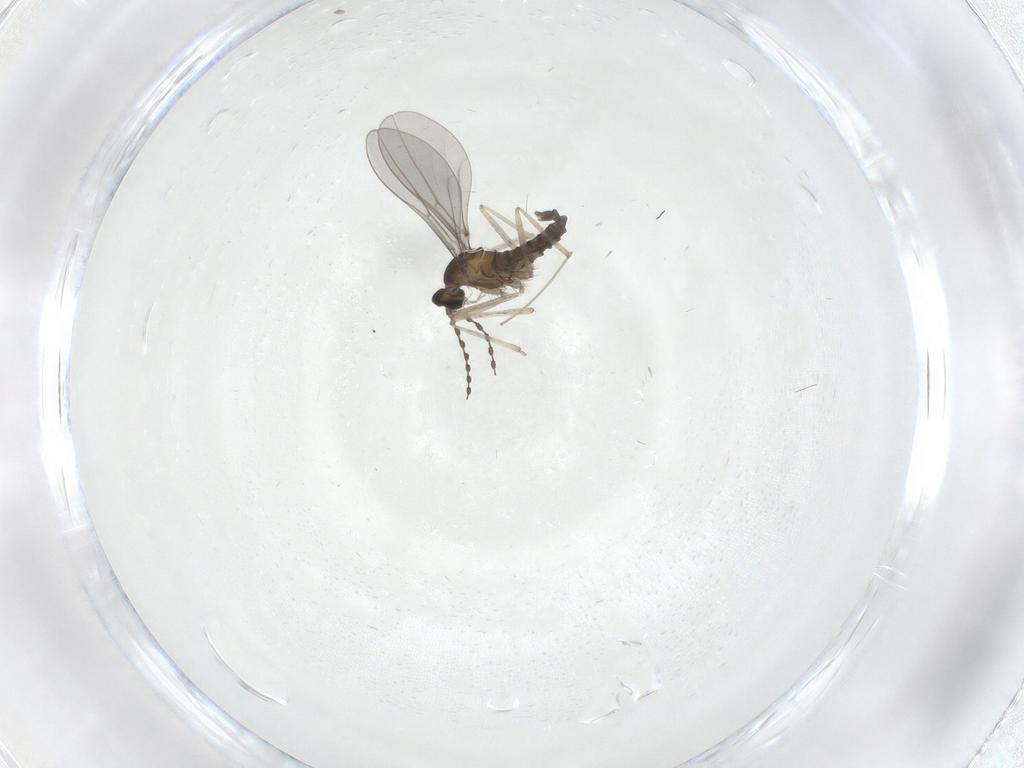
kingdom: Animalia
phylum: Arthropoda
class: Insecta
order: Diptera
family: Cecidomyiidae
